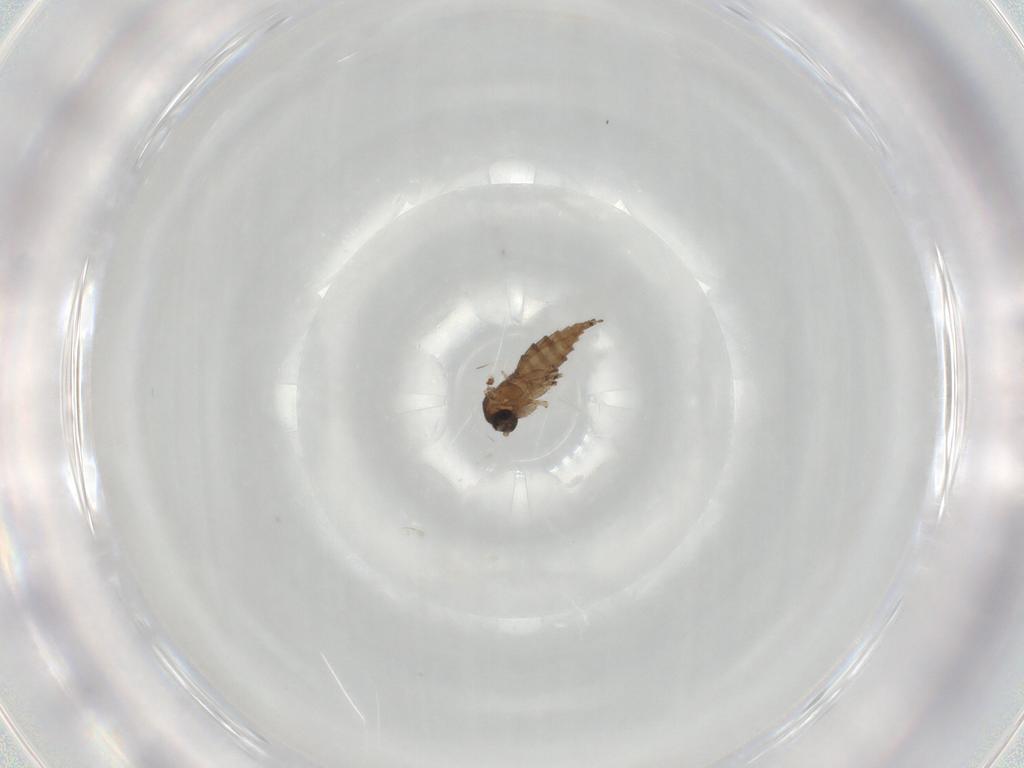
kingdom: Animalia
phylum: Arthropoda
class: Insecta
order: Diptera
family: Sciaridae
